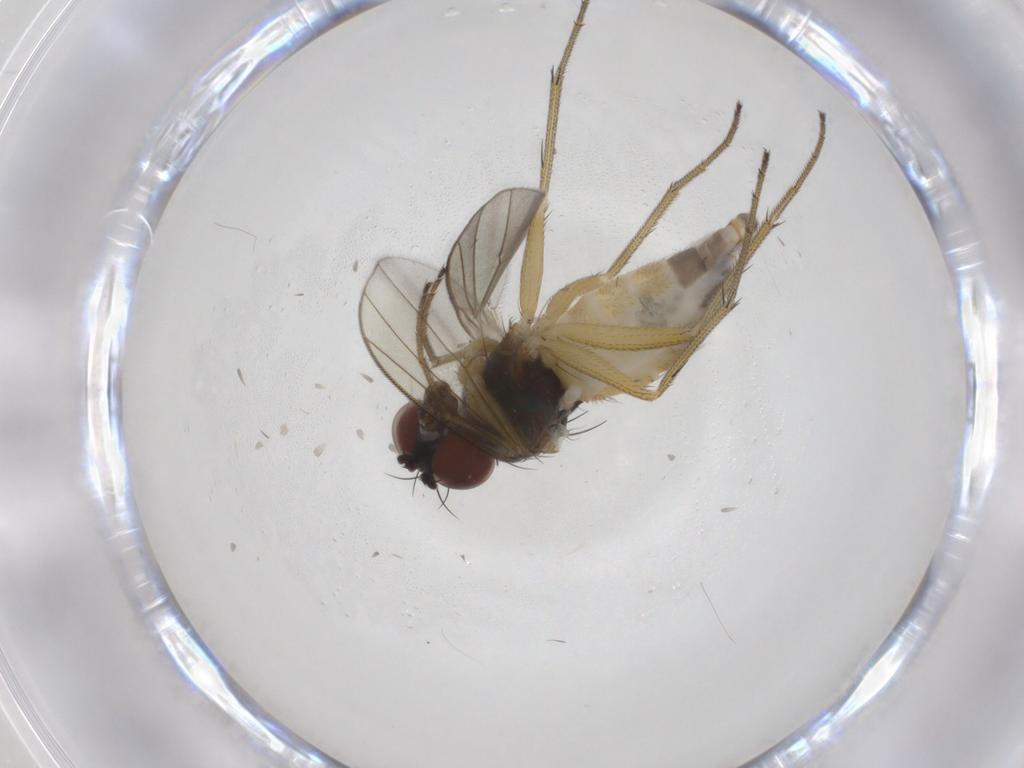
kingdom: Animalia
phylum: Arthropoda
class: Insecta
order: Diptera
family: Dolichopodidae
